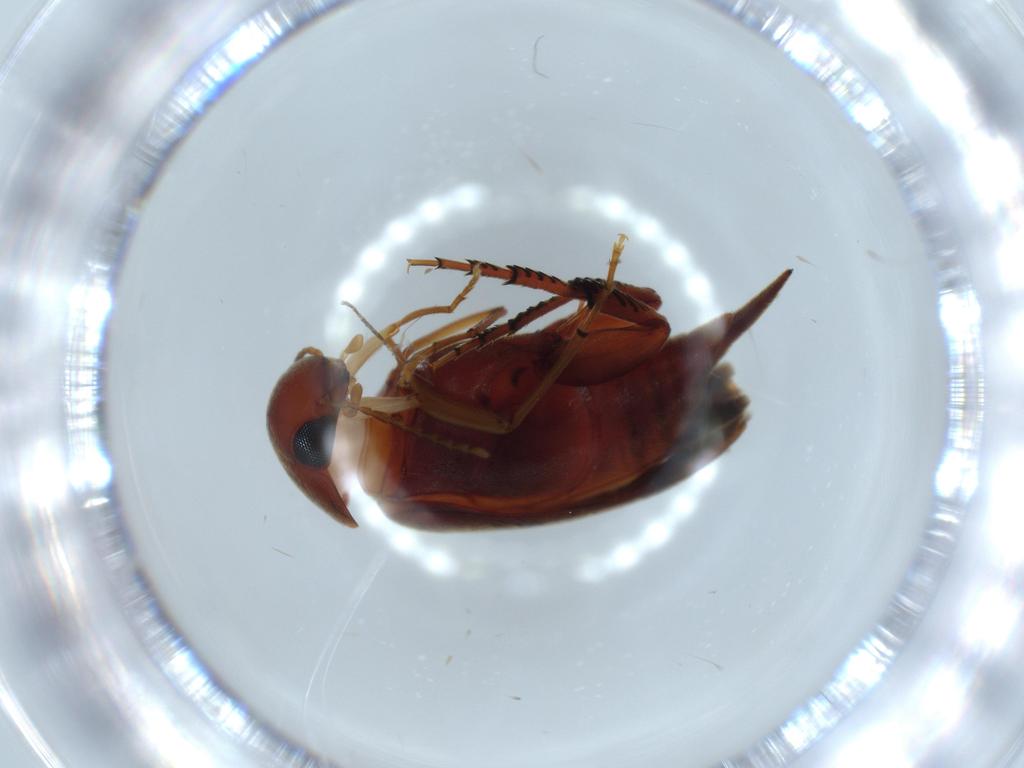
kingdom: Animalia
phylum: Arthropoda
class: Insecta
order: Coleoptera
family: Chrysomelidae
